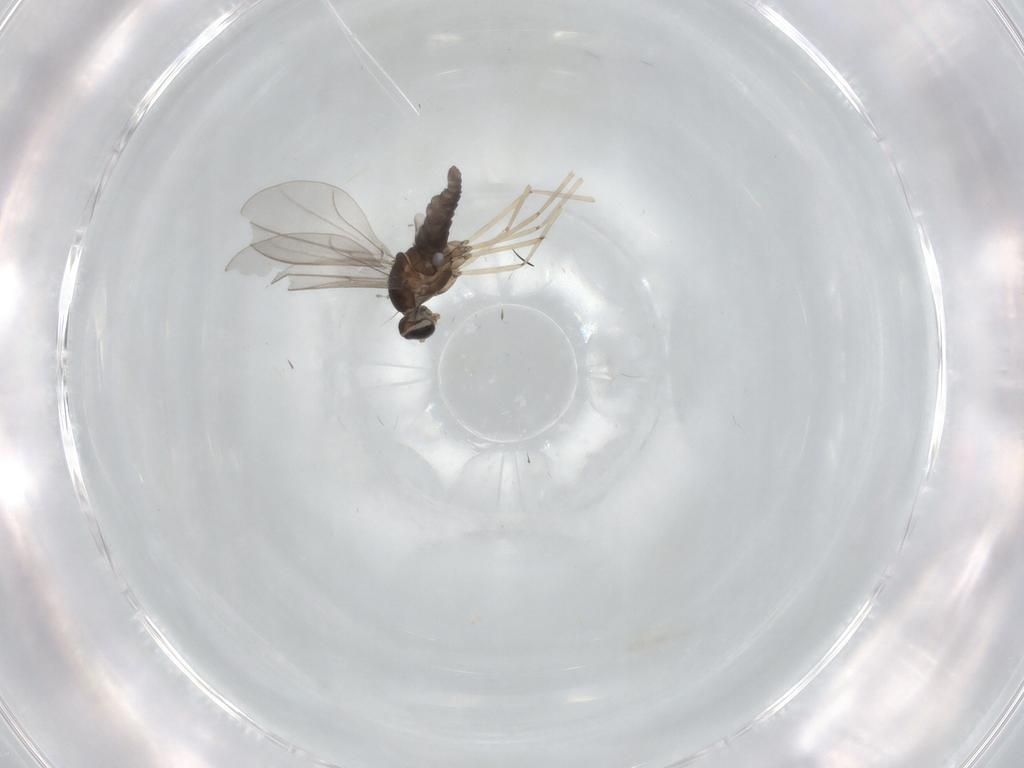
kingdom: Animalia
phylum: Arthropoda
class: Insecta
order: Diptera
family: Cecidomyiidae
